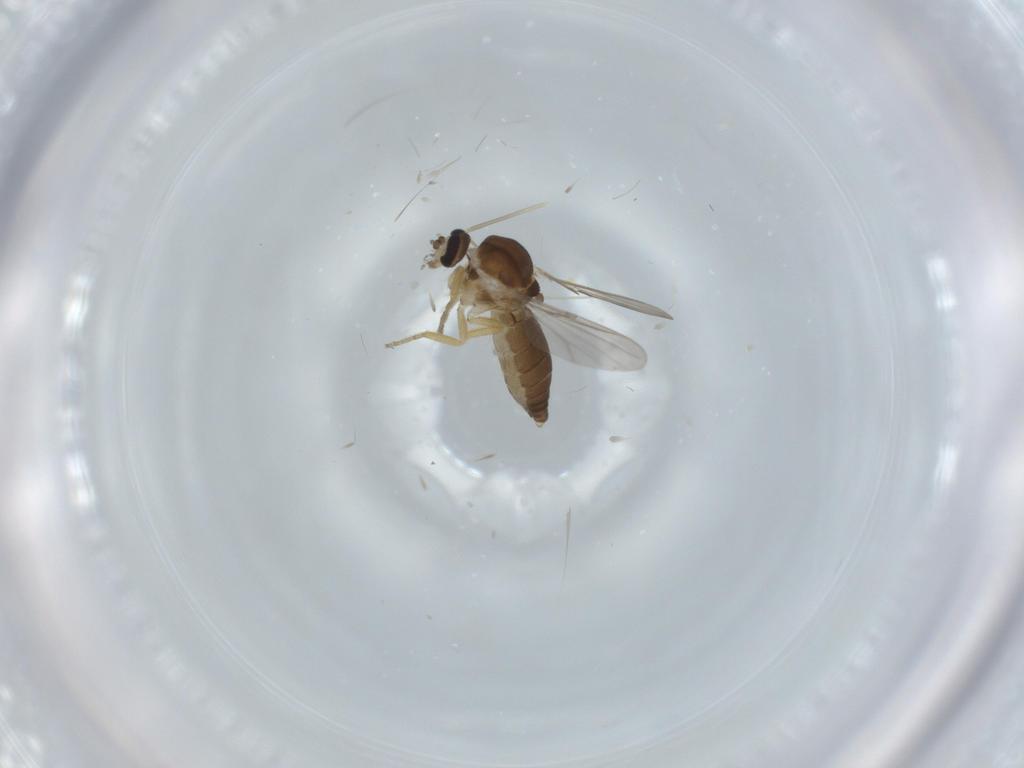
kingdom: Animalia
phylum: Arthropoda
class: Insecta
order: Diptera
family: Ceratopogonidae
